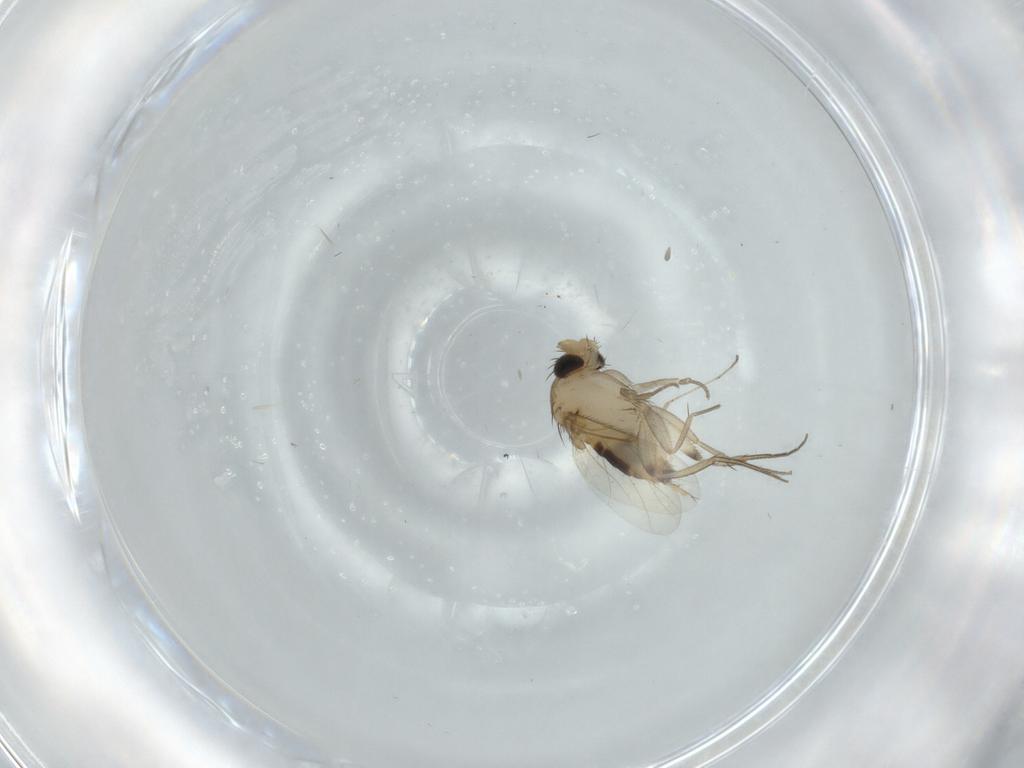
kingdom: Animalia
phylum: Arthropoda
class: Insecta
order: Diptera
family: Phoridae
